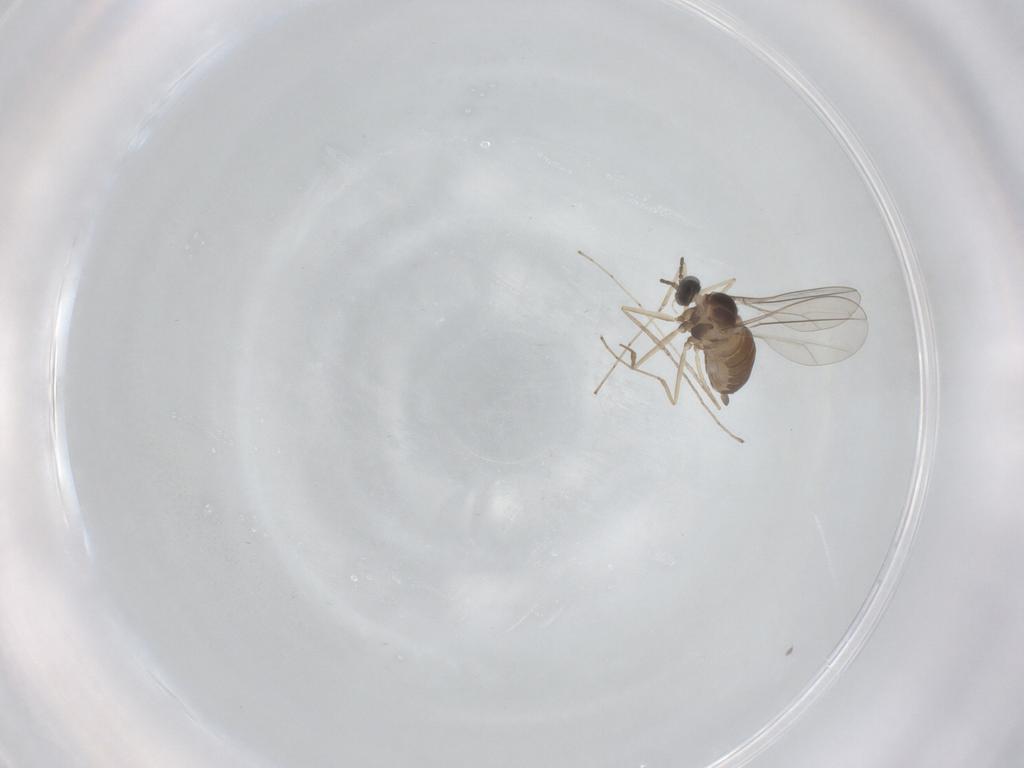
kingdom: Animalia
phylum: Arthropoda
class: Insecta
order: Diptera
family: Cecidomyiidae
